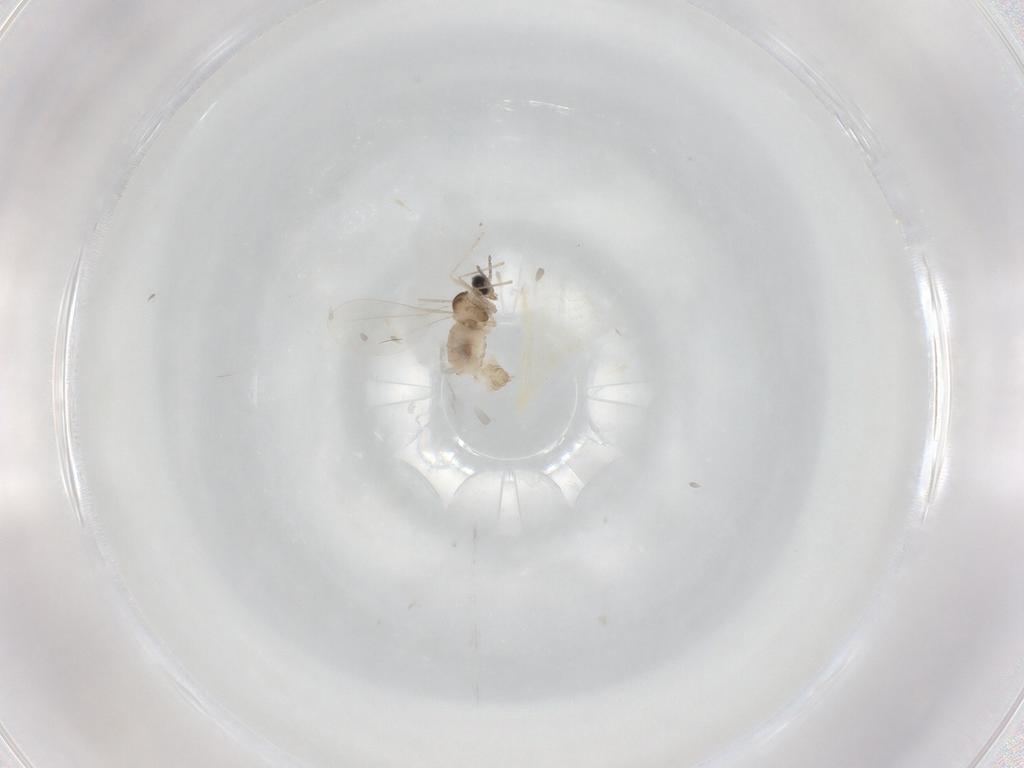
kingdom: Animalia
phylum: Arthropoda
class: Insecta
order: Diptera
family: Cecidomyiidae
